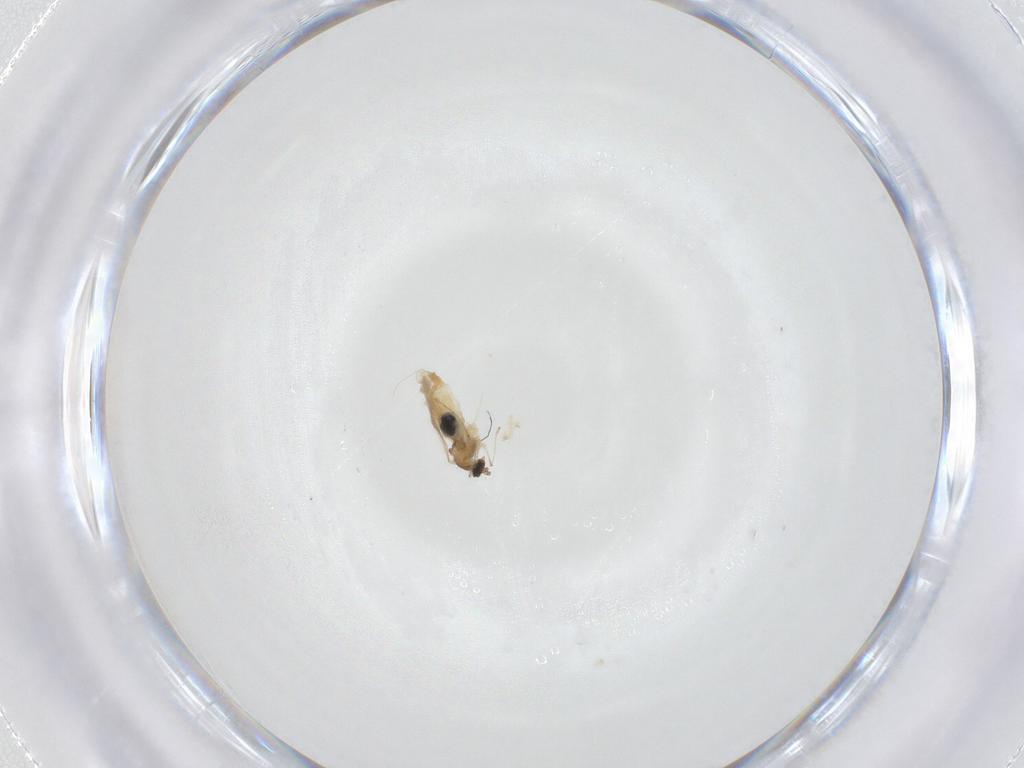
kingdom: Animalia
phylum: Arthropoda
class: Insecta
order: Diptera
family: Cecidomyiidae
